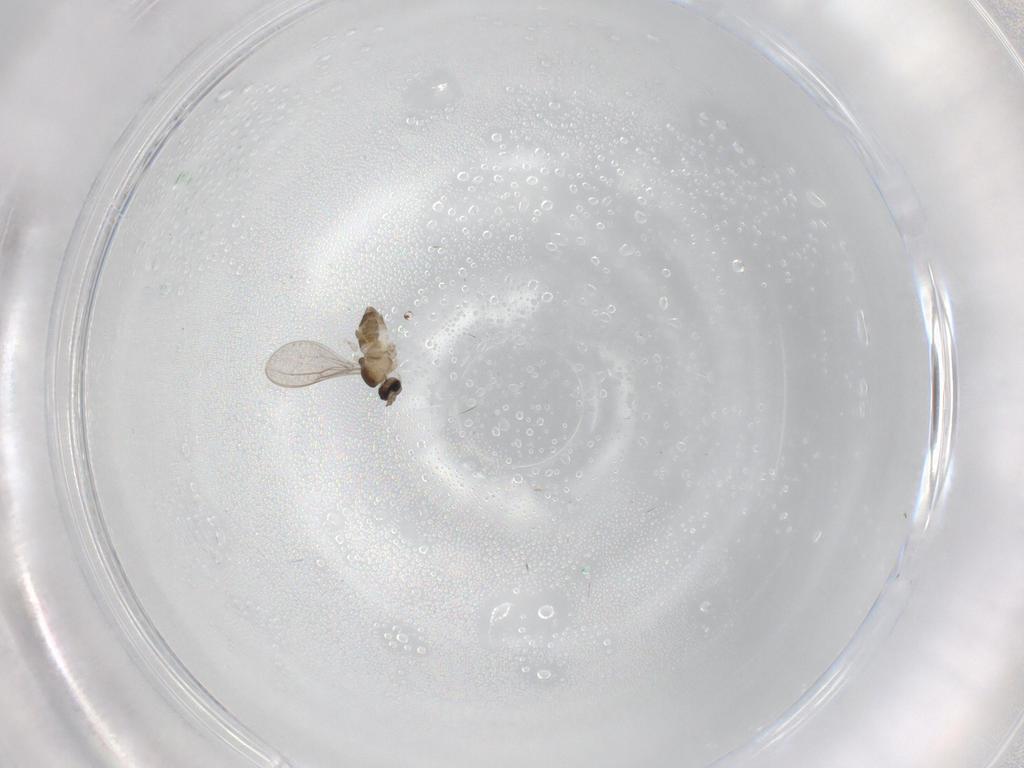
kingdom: Animalia
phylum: Arthropoda
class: Insecta
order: Diptera
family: Cecidomyiidae
